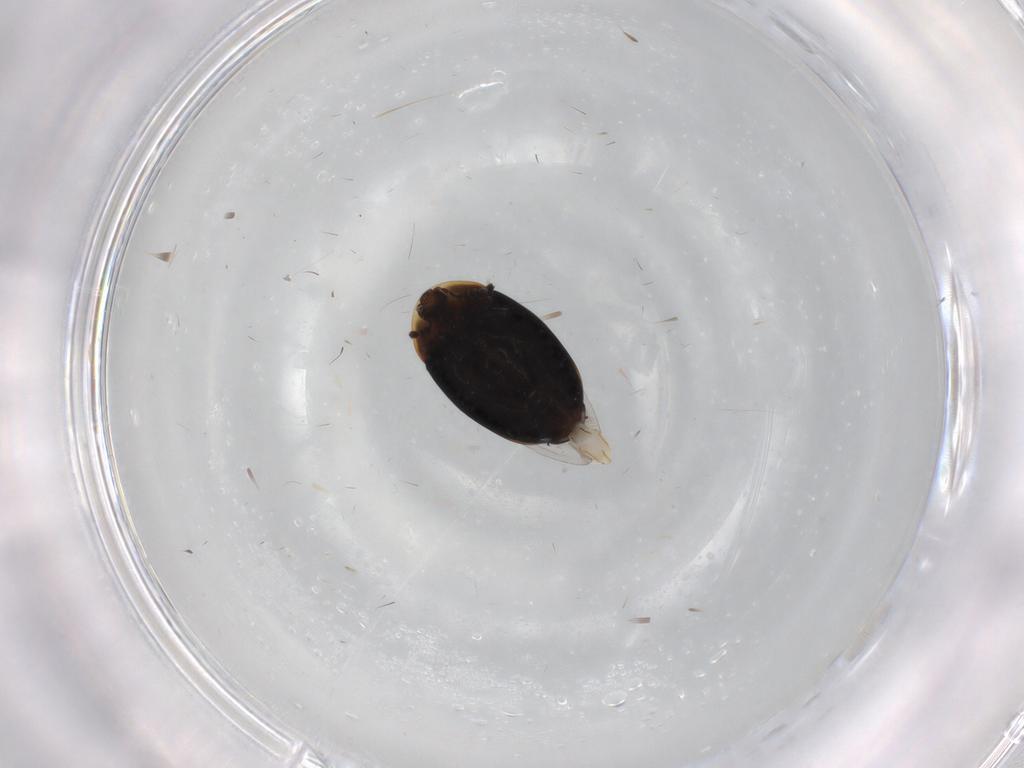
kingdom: Animalia
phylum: Arthropoda
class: Insecta
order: Coleoptera
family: Corylophidae
